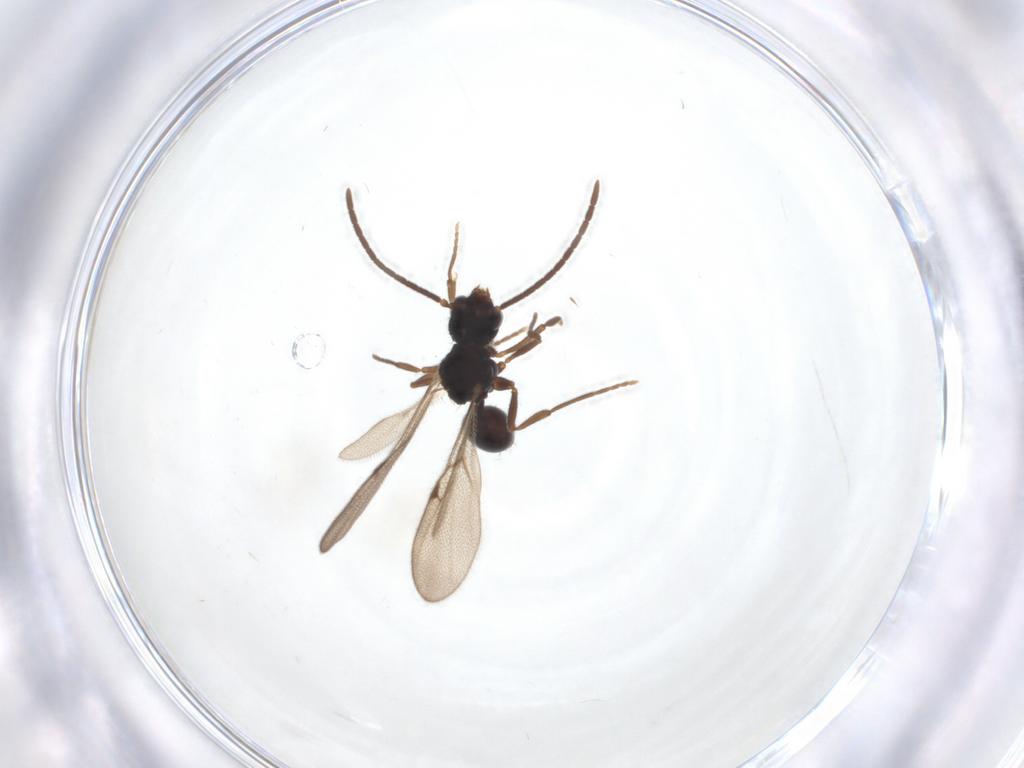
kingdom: Animalia
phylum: Arthropoda
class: Insecta
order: Hymenoptera
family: Formicidae
